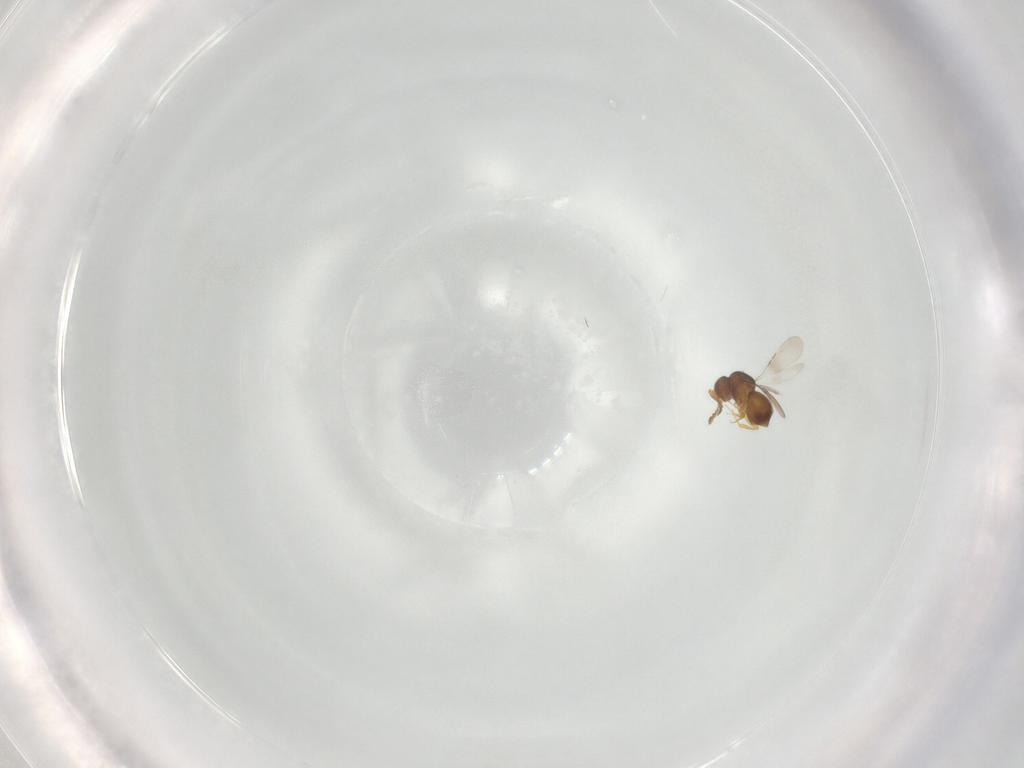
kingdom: Animalia
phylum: Arthropoda
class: Insecta
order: Hymenoptera
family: Ceraphronidae
